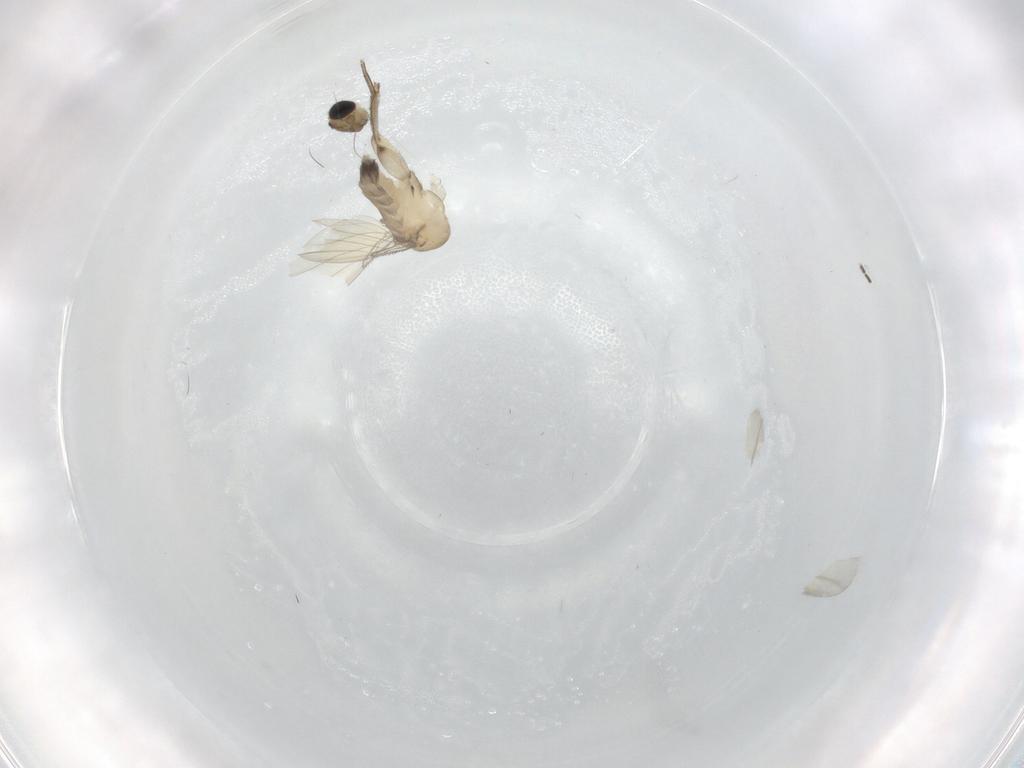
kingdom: Animalia
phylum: Arthropoda
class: Insecta
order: Diptera
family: Phoridae
